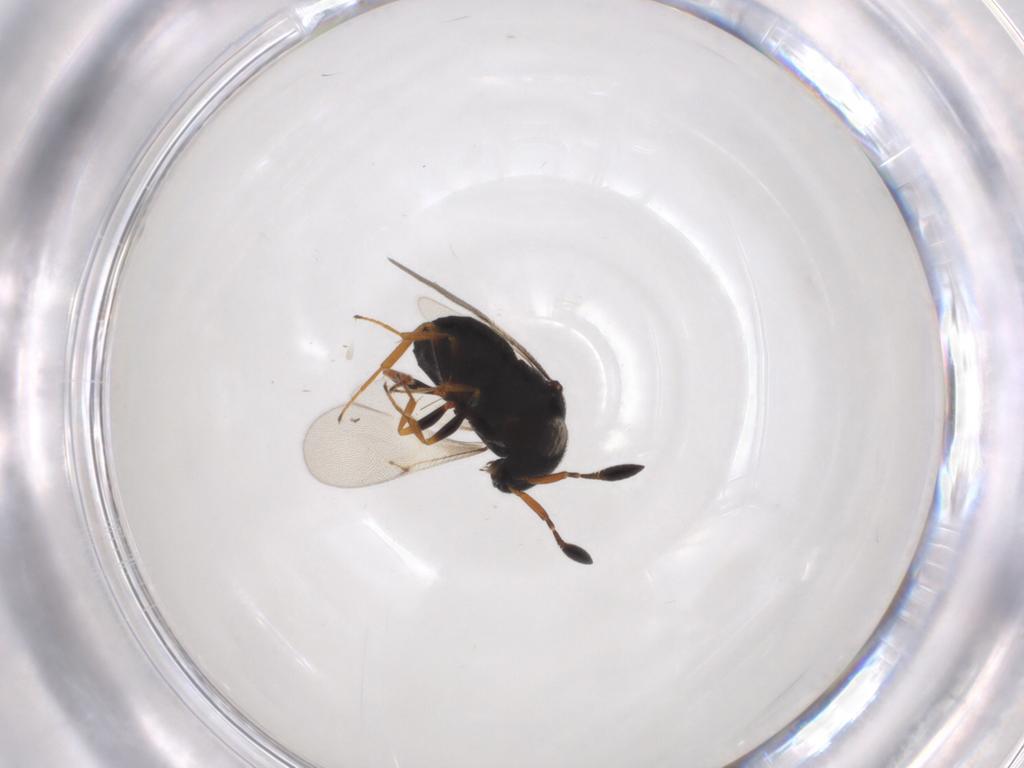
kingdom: Animalia
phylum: Arthropoda
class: Insecta
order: Hymenoptera
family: Scelionidae
